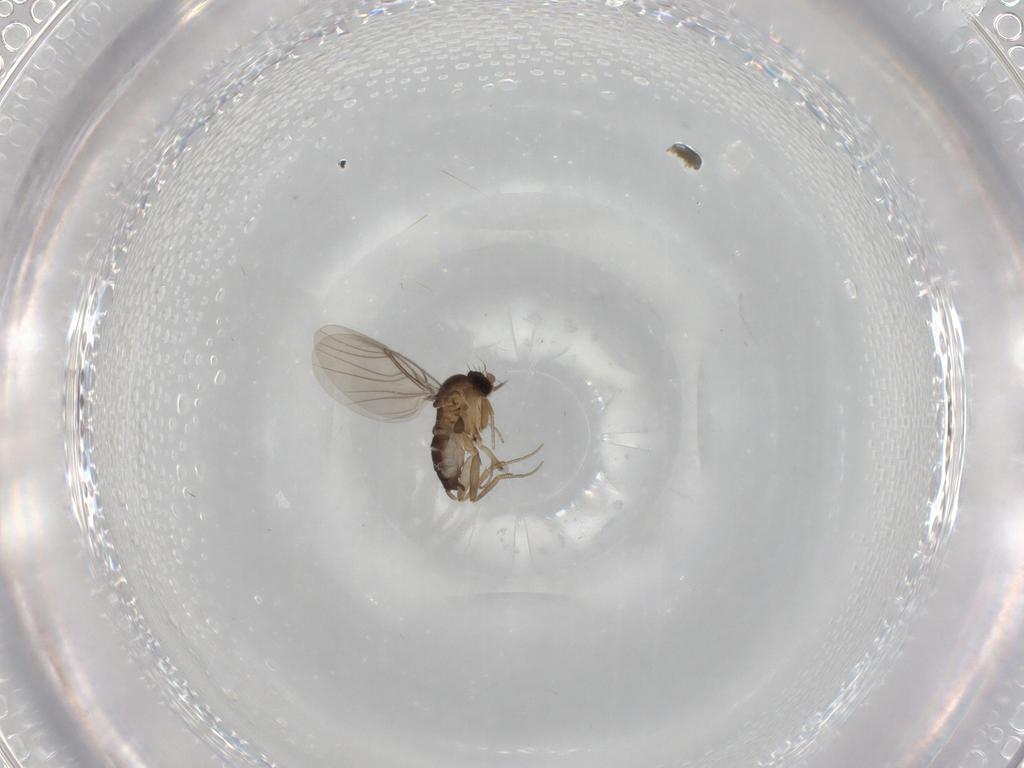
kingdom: Animalia
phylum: Arthropoda
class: Insecta
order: Diptera
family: Phoridae
